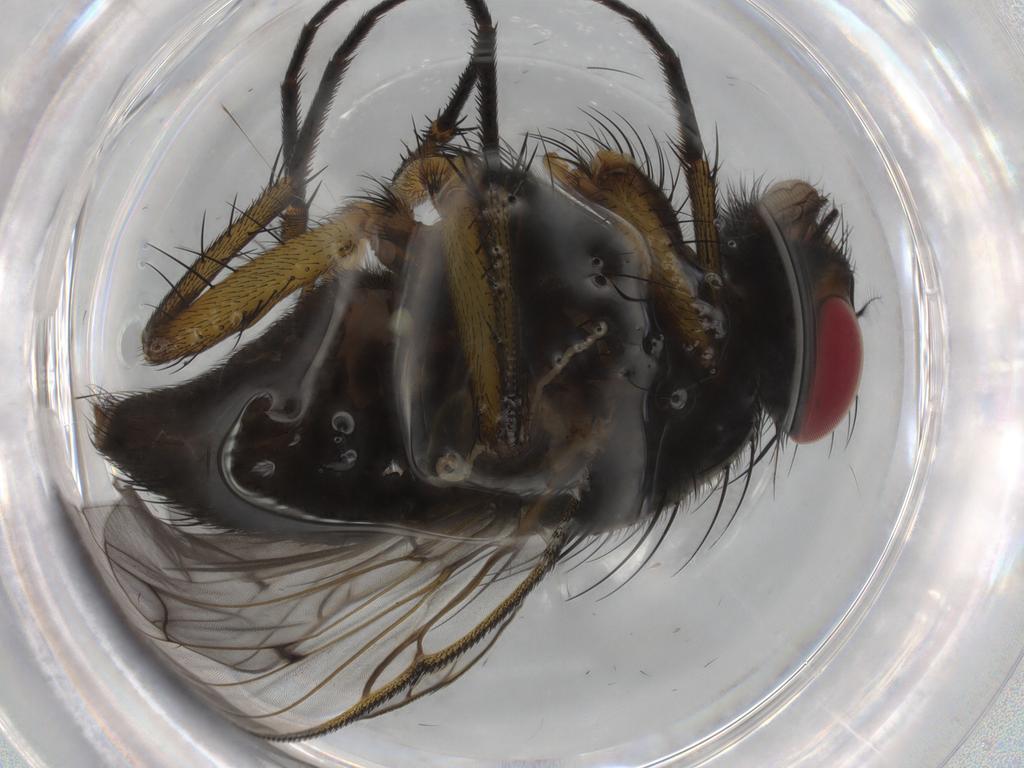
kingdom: Animalia
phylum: Arthropoda
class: Insecta
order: Diptera
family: Muscidae
